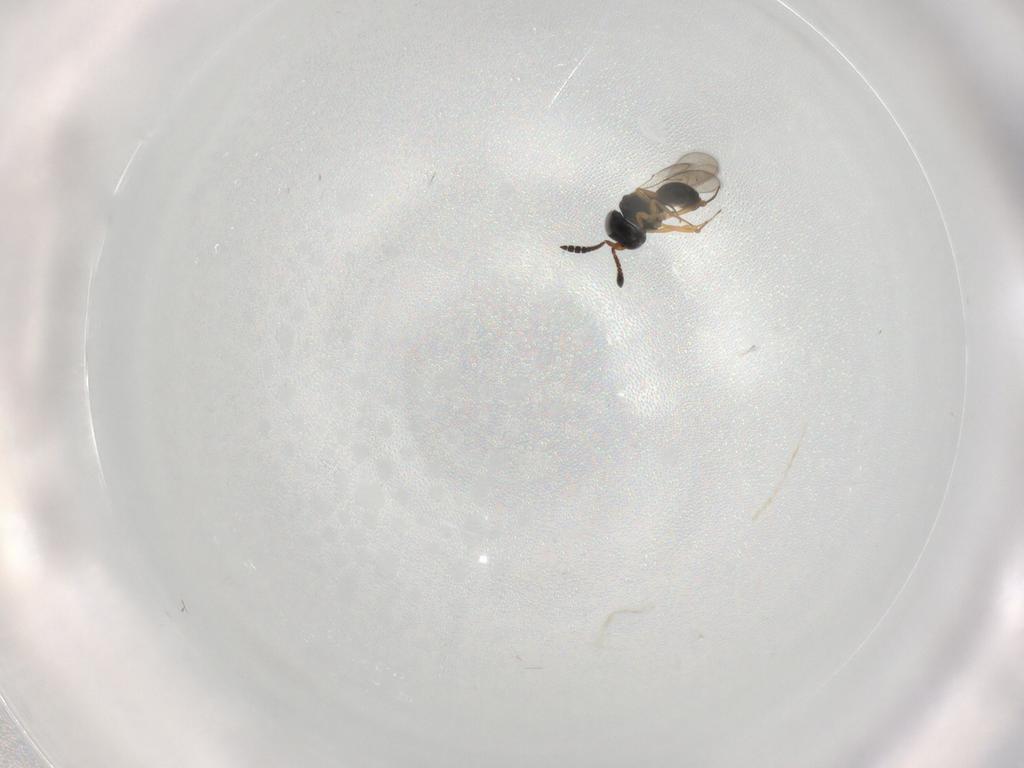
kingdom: Animalia
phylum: Arthropoda
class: Insecta
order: Hymenoptera
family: Scelionidae
